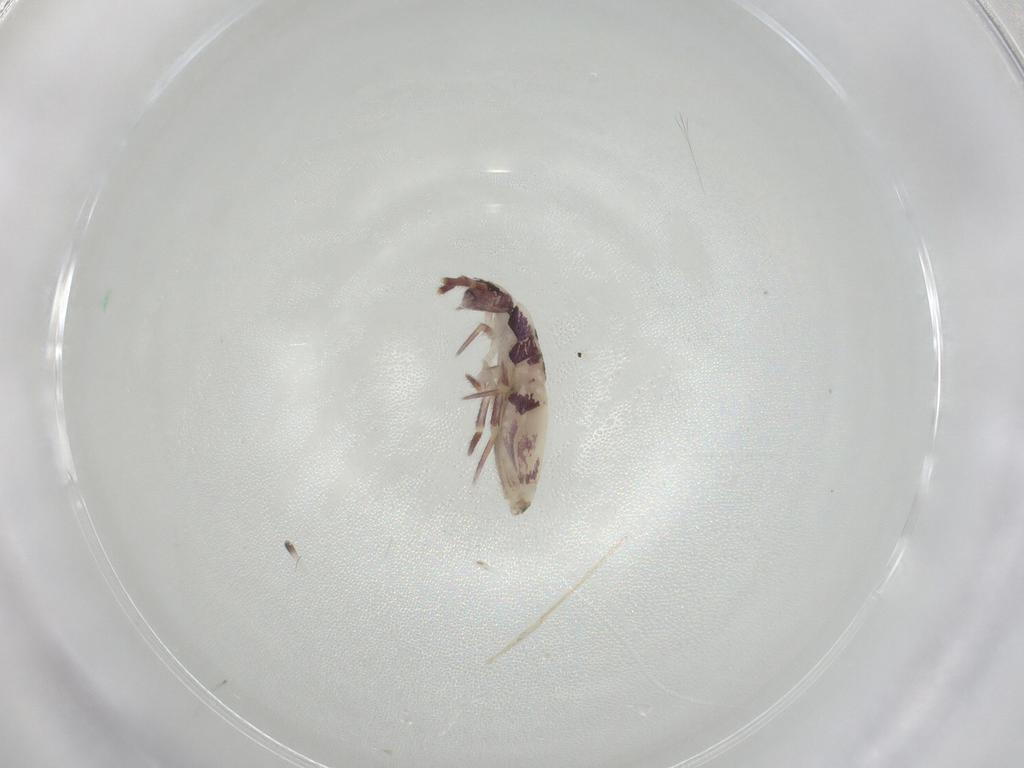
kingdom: Animalia
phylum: Arthropoda
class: Collembola
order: Entomobryomorpha
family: Entomobryidae
